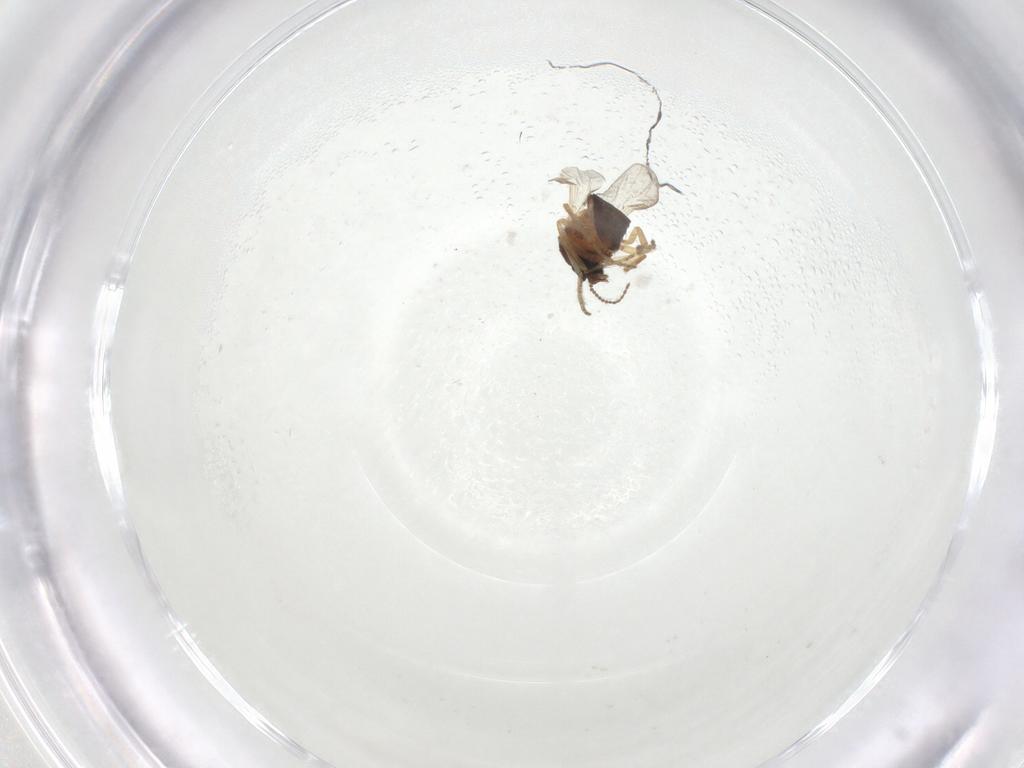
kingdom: Animalia
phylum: Arthropoda
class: Insecta
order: Diptera
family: Ceratopogonidae
